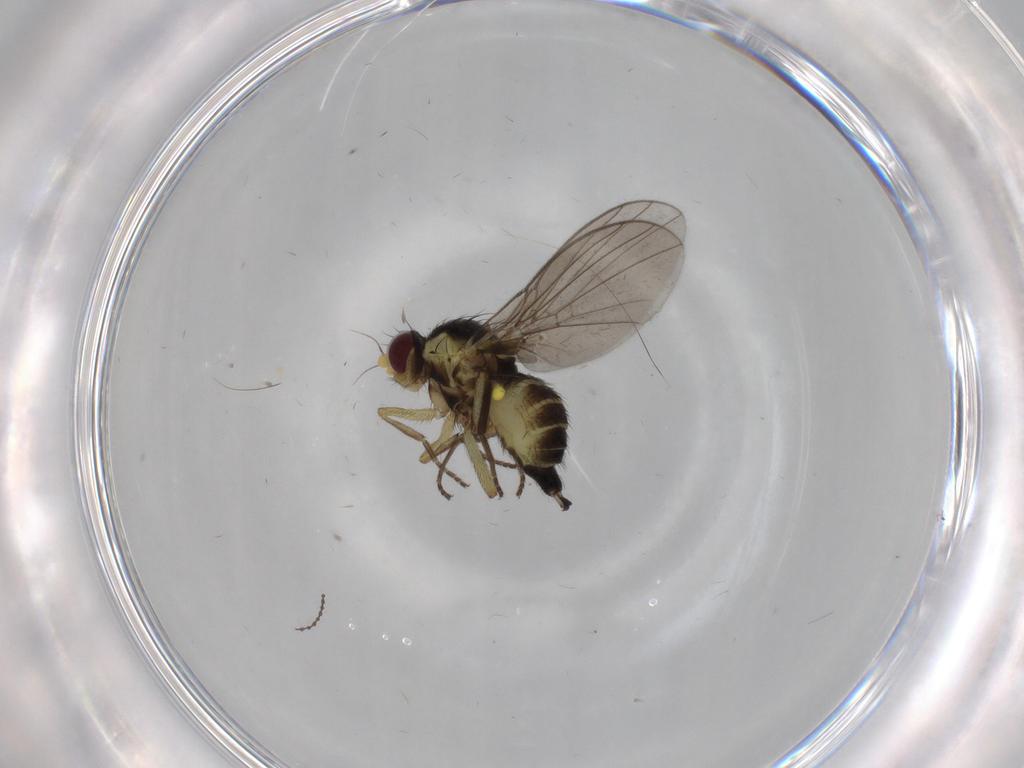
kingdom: Animalia
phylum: Arthropoda
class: Insecta
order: Diptera
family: Agromyzidae
